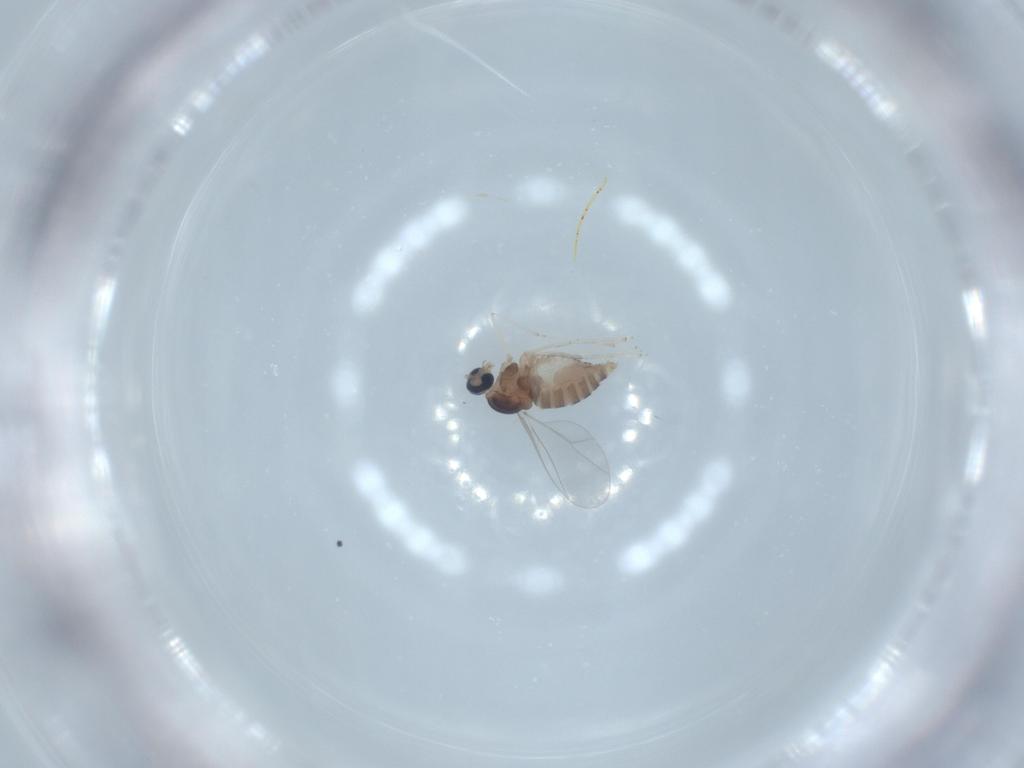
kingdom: Animalia
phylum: Arthropoda
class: Insecta
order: Diptera
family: Cecidomyiidae
